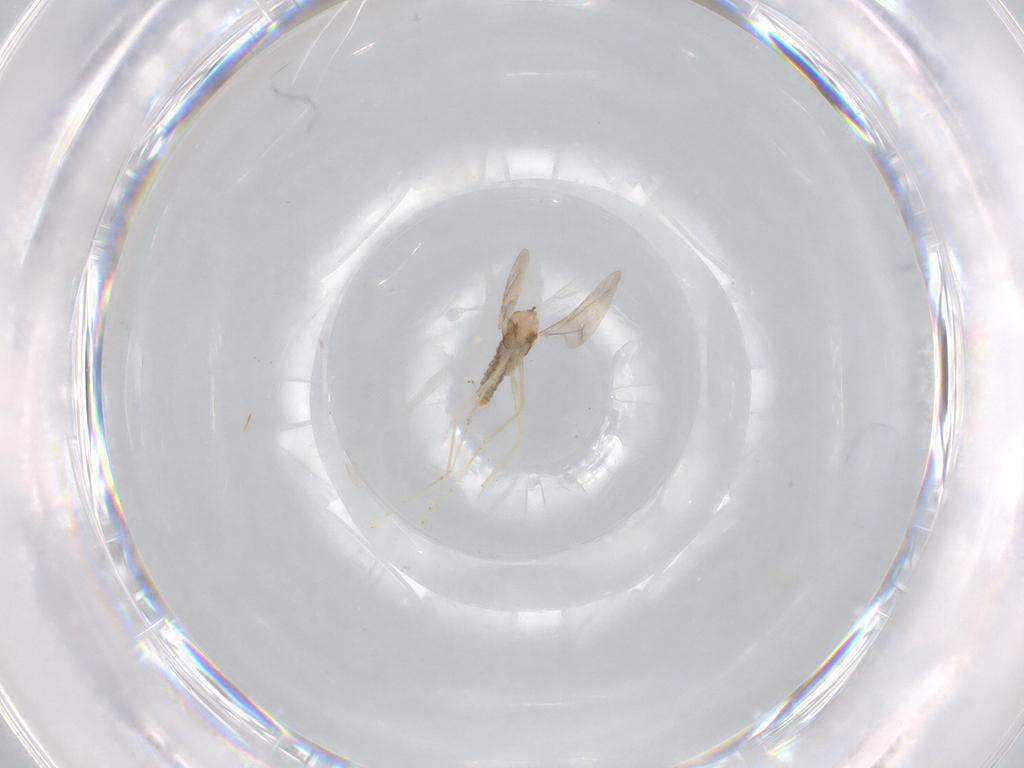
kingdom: Animalia
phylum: Arthropoda
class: Insecta
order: Diptera
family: Cecidomyiidae
